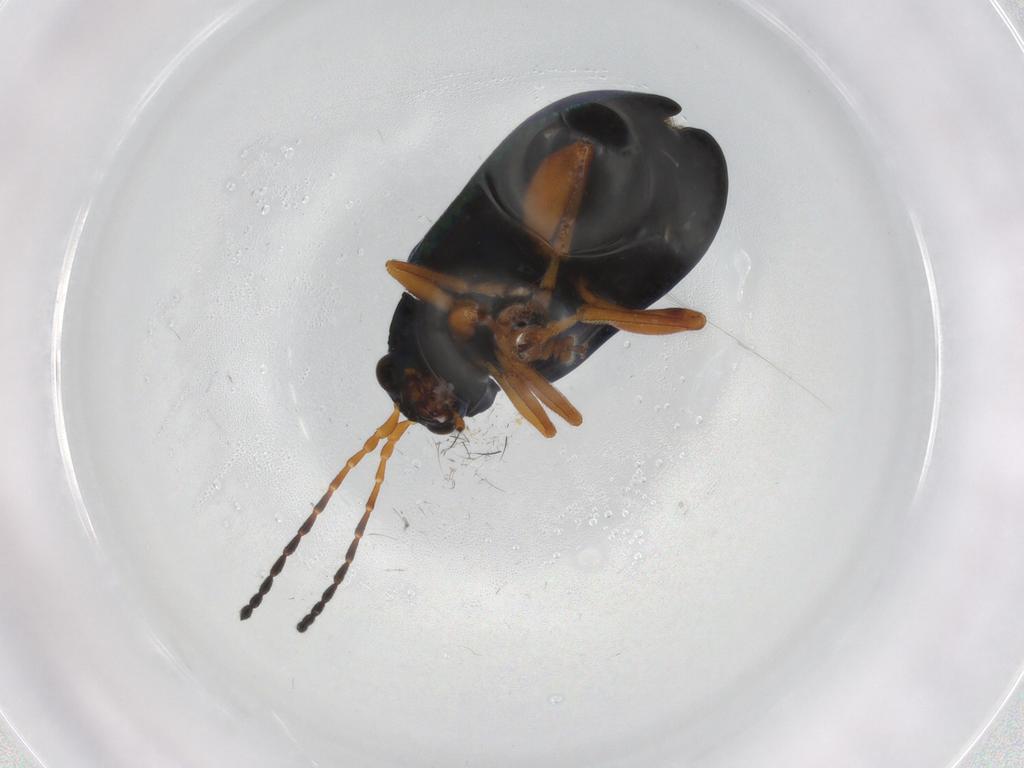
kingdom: Animalia
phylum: Arthropoda
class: Insecta
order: Coleoptera
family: Chrysomelidae
